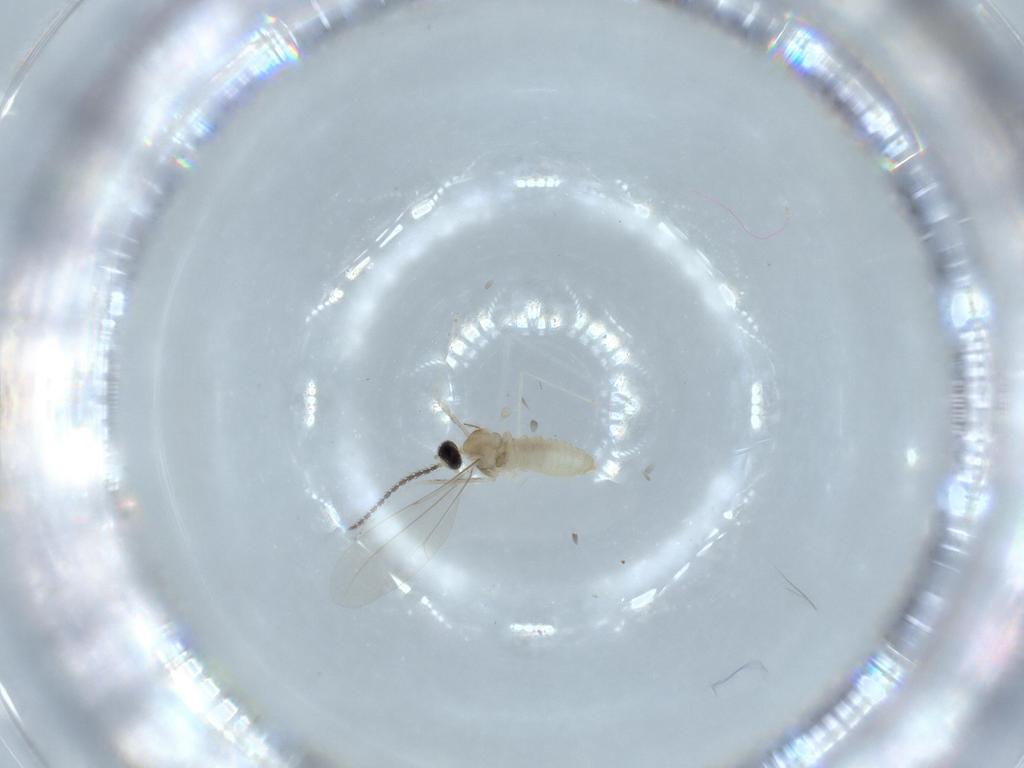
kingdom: Animalia
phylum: Arthropoda
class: Insecta
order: Diptera
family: Cecidomyiidae
